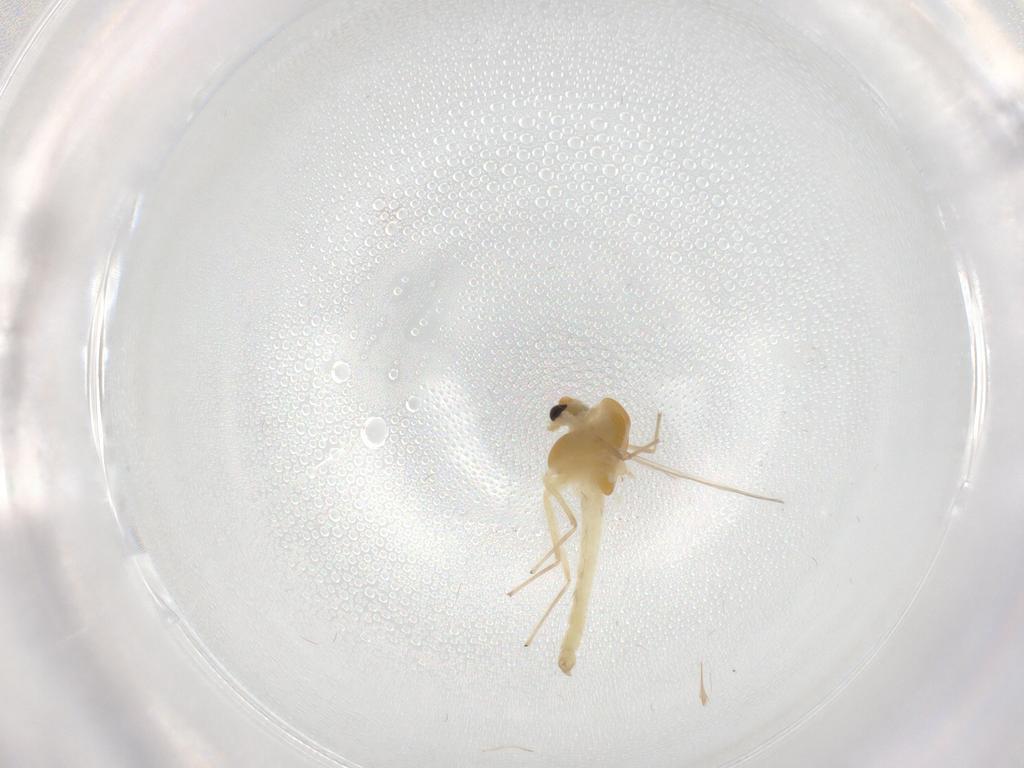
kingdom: Animalia
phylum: Arthropoda
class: Insecta
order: Diptera
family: Chironomidae
